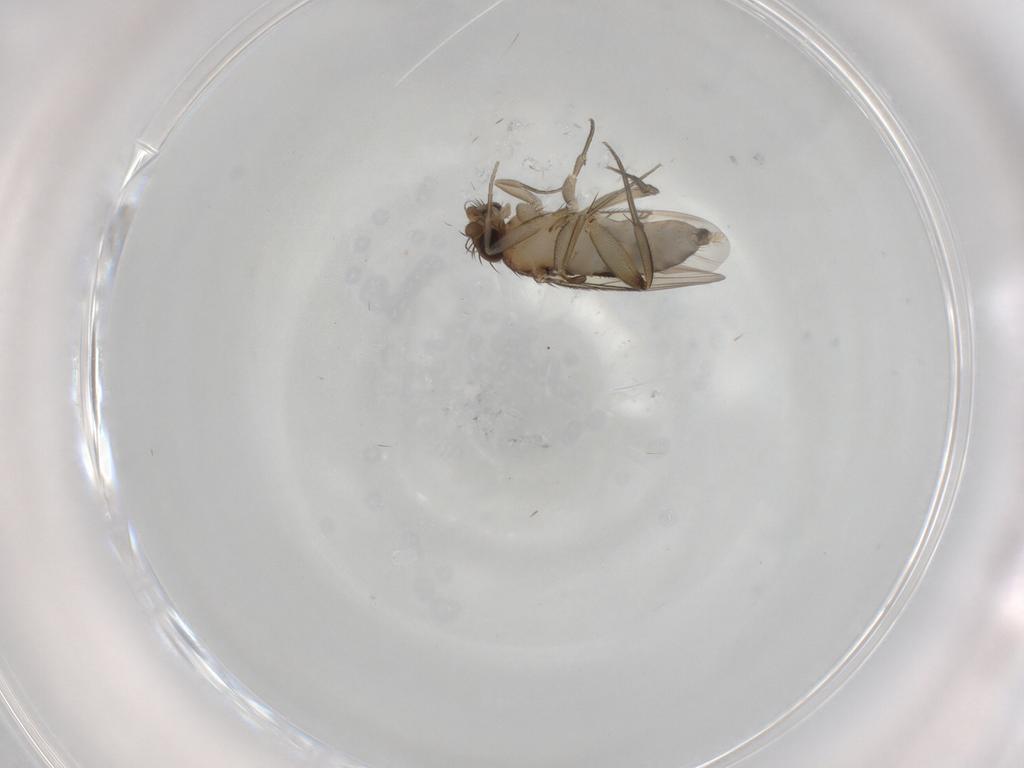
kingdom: Animalia
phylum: Arthropoda
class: Insecta
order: Diptera
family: Phoridae
